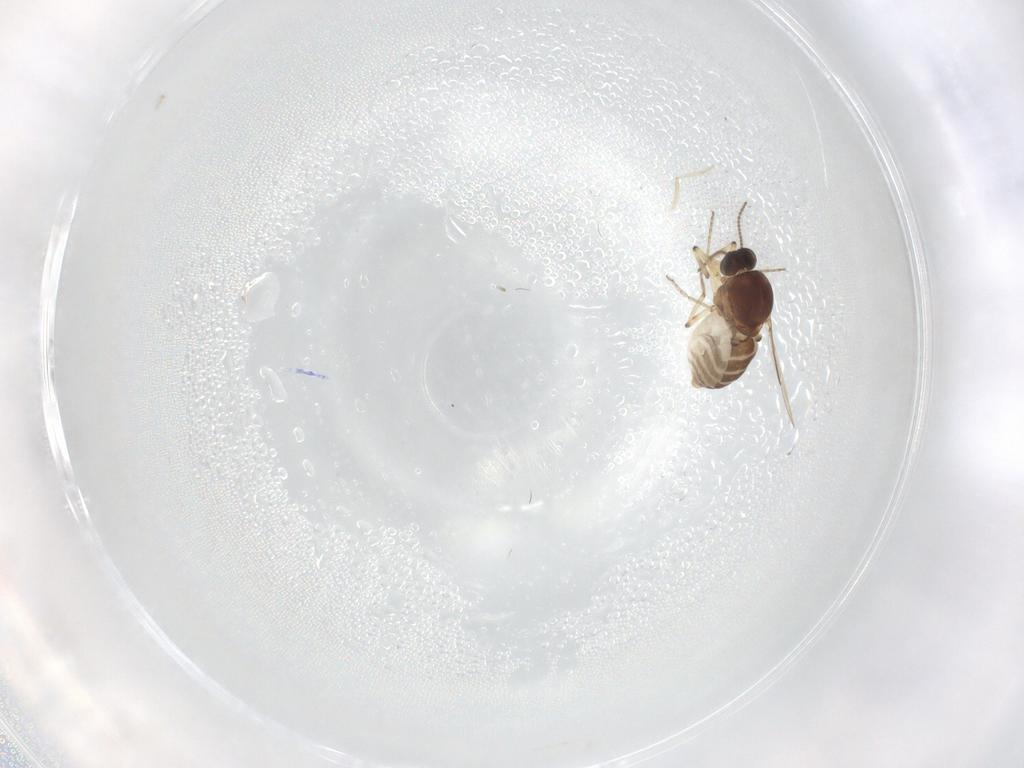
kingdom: Animalia
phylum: Arthropoda
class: Insecta
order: Diptera
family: Ceratopogonidae
